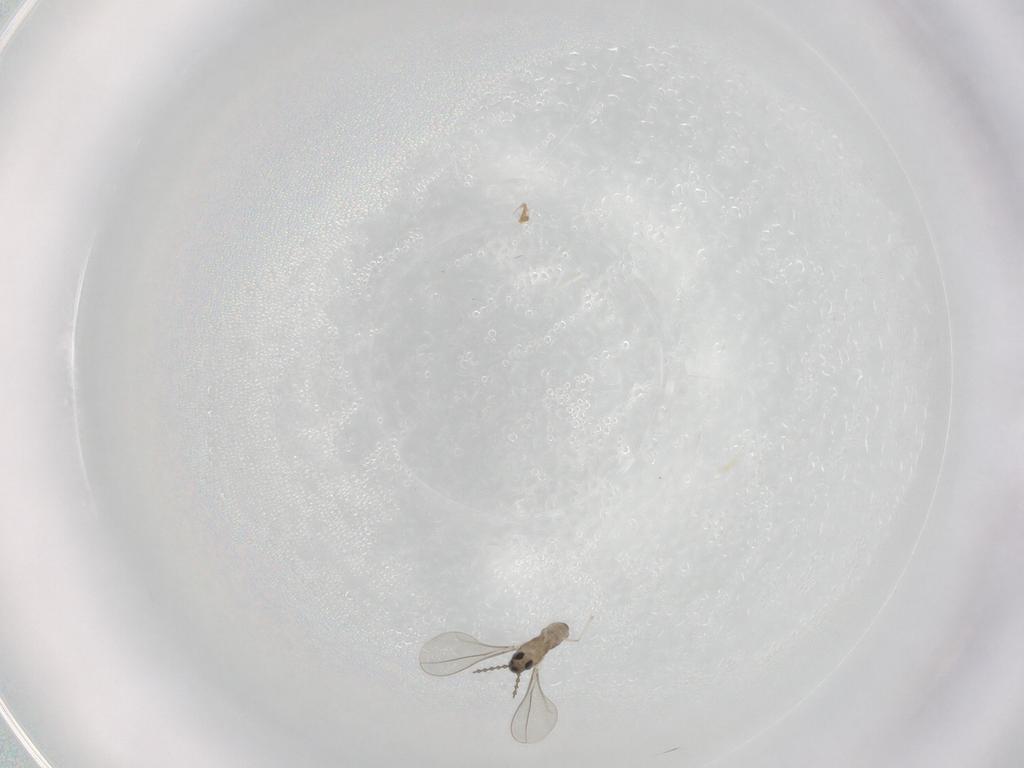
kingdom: Animalia
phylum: Arthropoda
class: Insecta
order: Diptera
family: Cecidomyiidae
